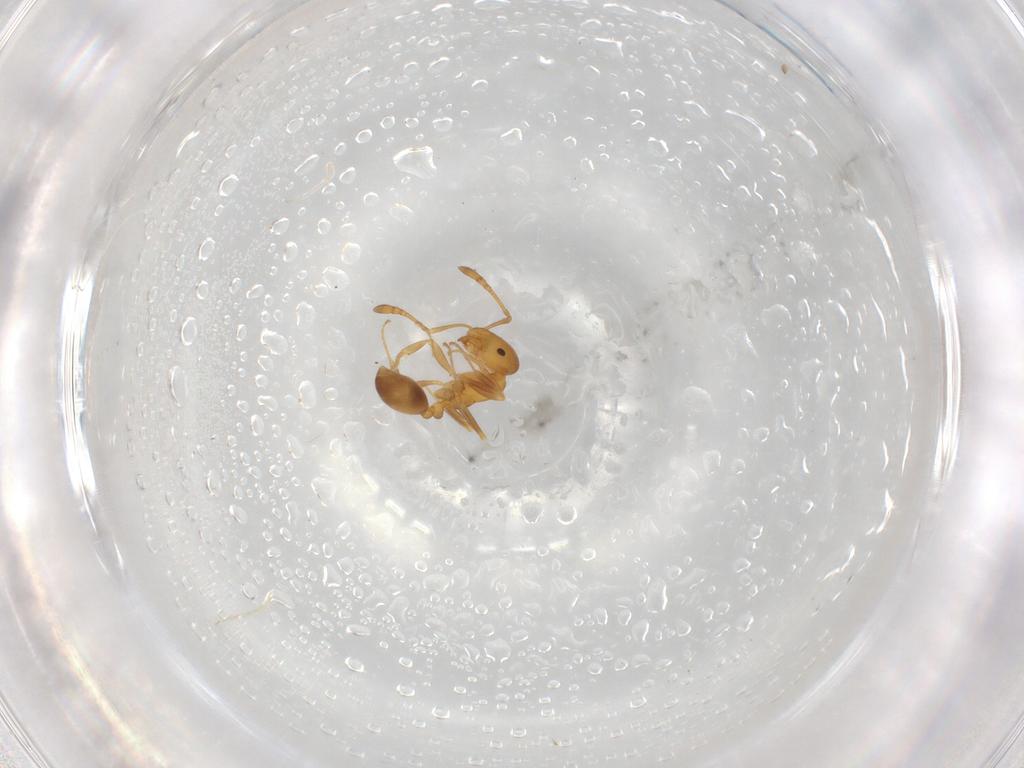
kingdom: Animalia
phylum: Arthropoda
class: Insecta
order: Hymenoptera
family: Formicidae
